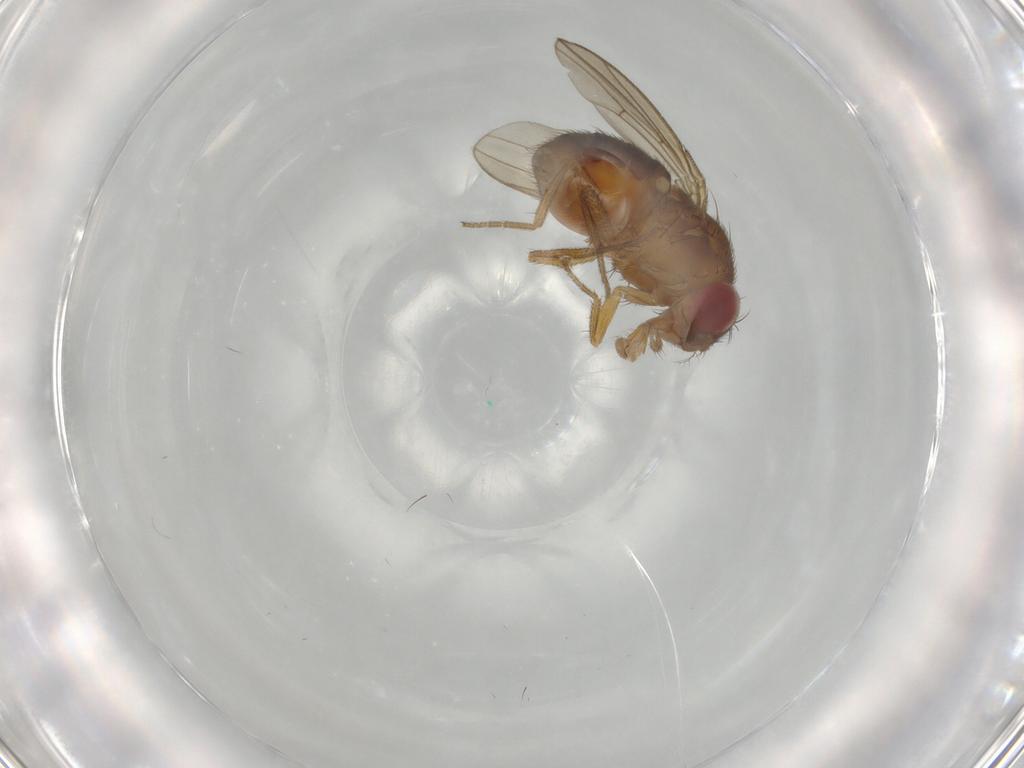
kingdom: Animalia
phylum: Arthropoda
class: Insecta
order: Diptera
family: Drosophilidae
